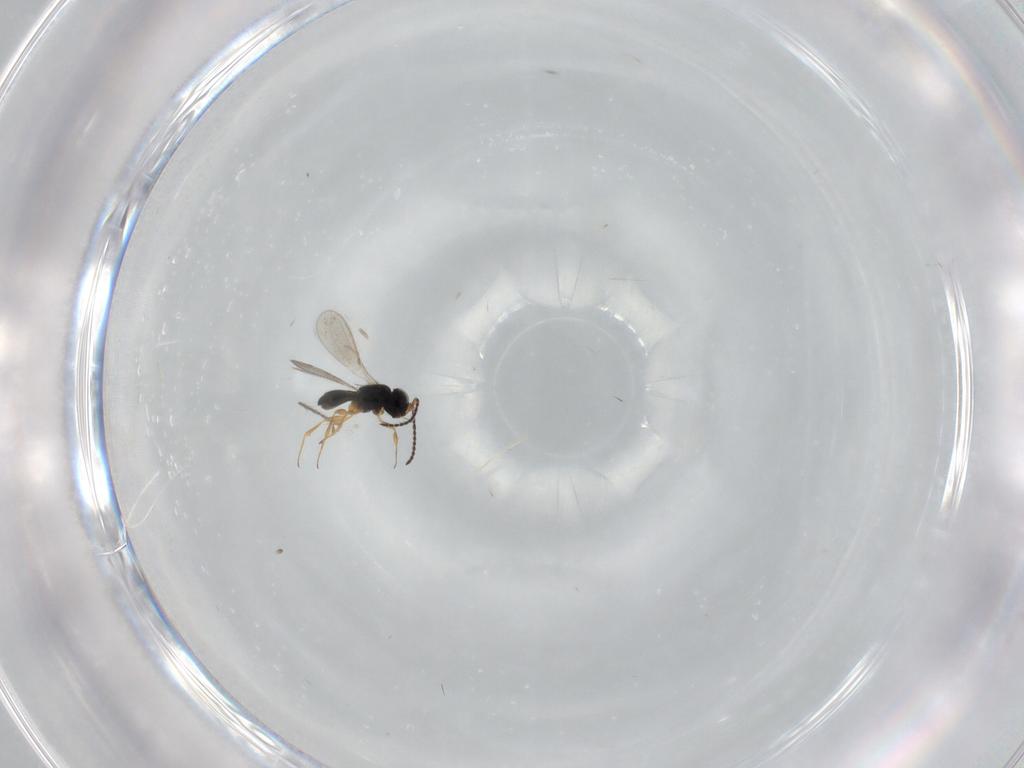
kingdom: Animalia
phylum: Arthropoda
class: Insecta
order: Hymenoptera
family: Scelionidae
